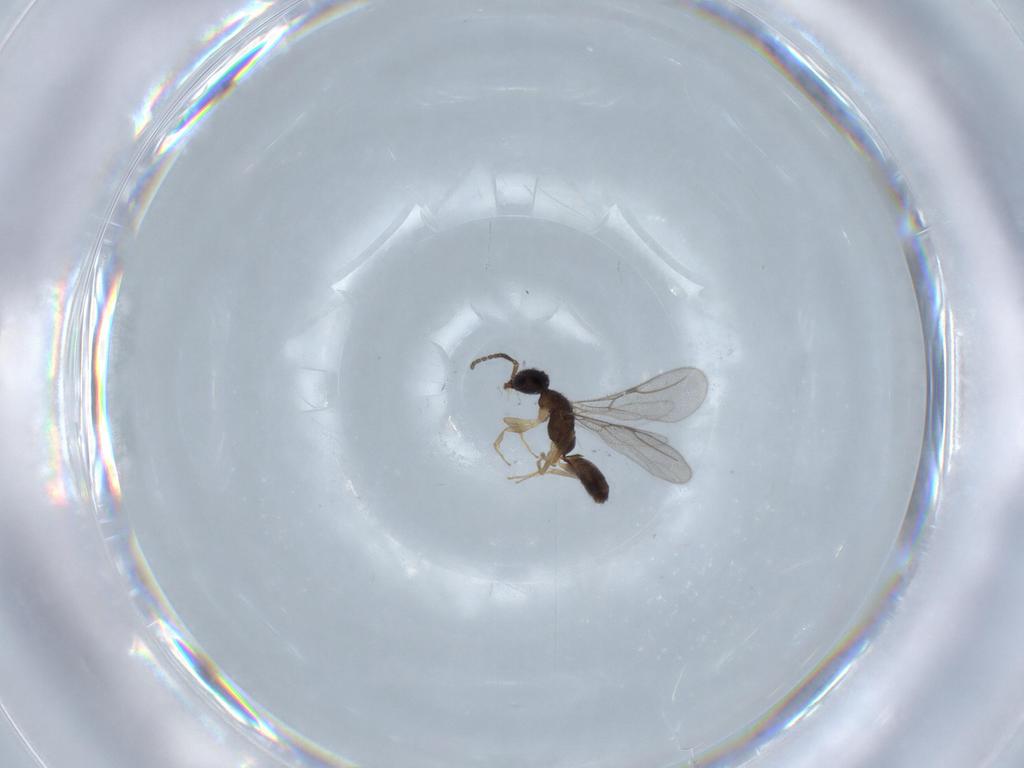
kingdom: Animalia
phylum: Arthropoda
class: Insecta
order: Hymenoptera
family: Bethylidae
